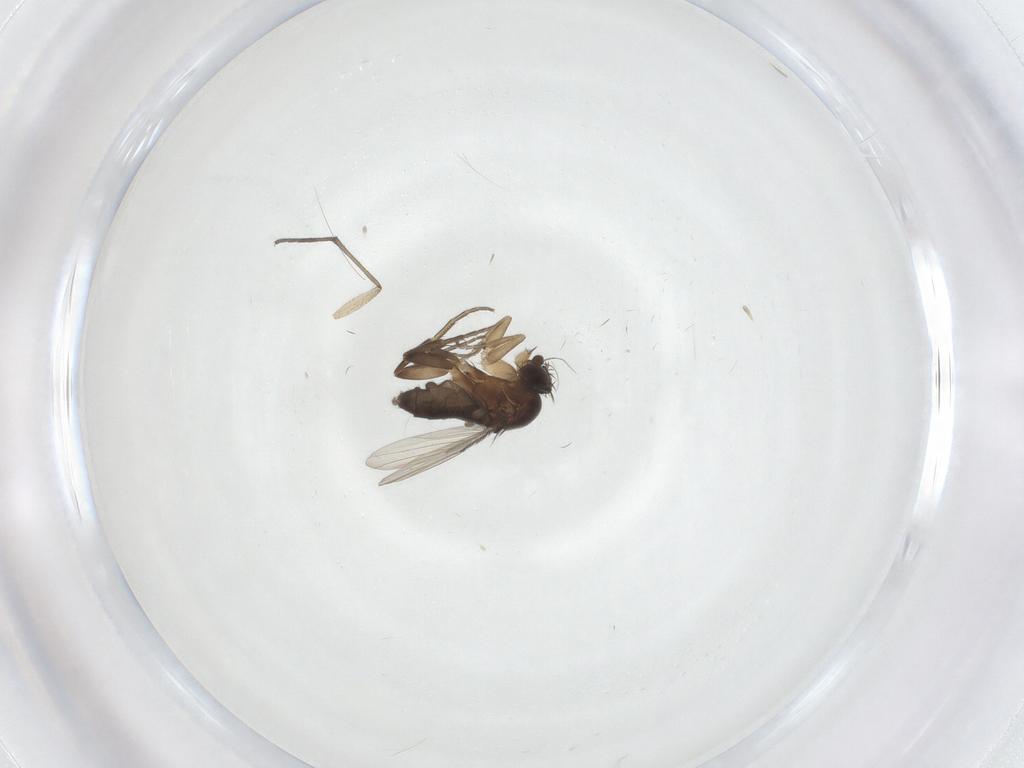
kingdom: Animalia
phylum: Arthropoda
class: Insecta
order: Diptera
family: Phoridae
